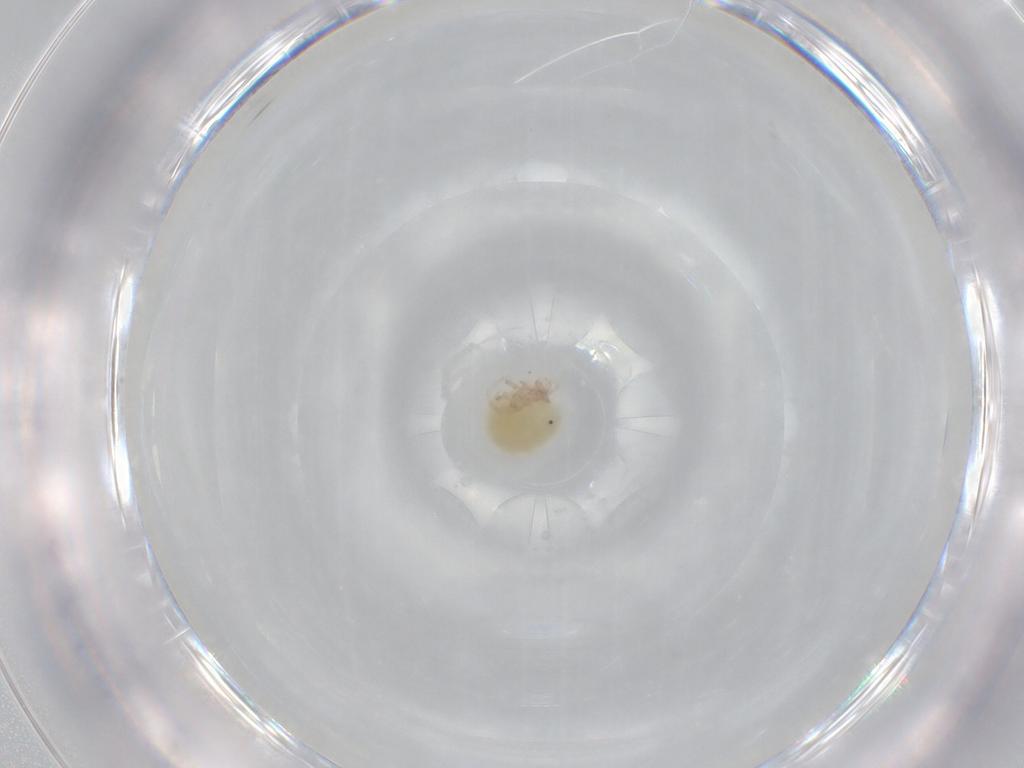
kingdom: Animalia
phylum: Arthropoda
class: Arachnida
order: Trombidiformes
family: Pionidae
